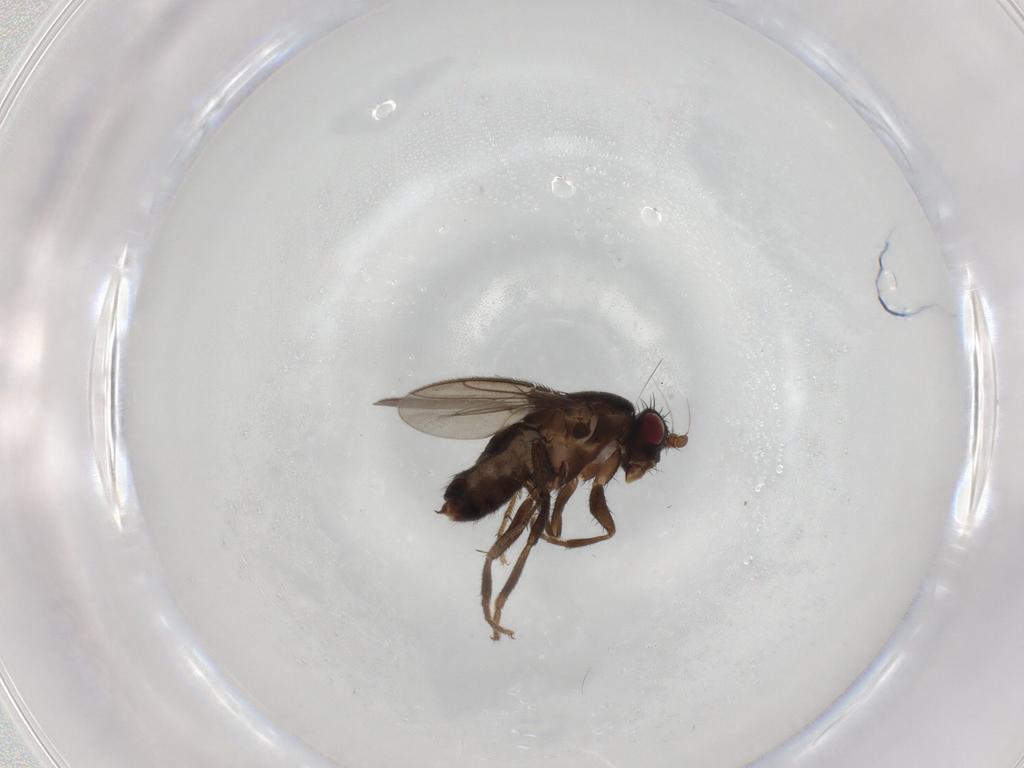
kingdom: Animalia
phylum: Arthropoda
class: Insecta
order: Diptera
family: Sphaeroceridae
